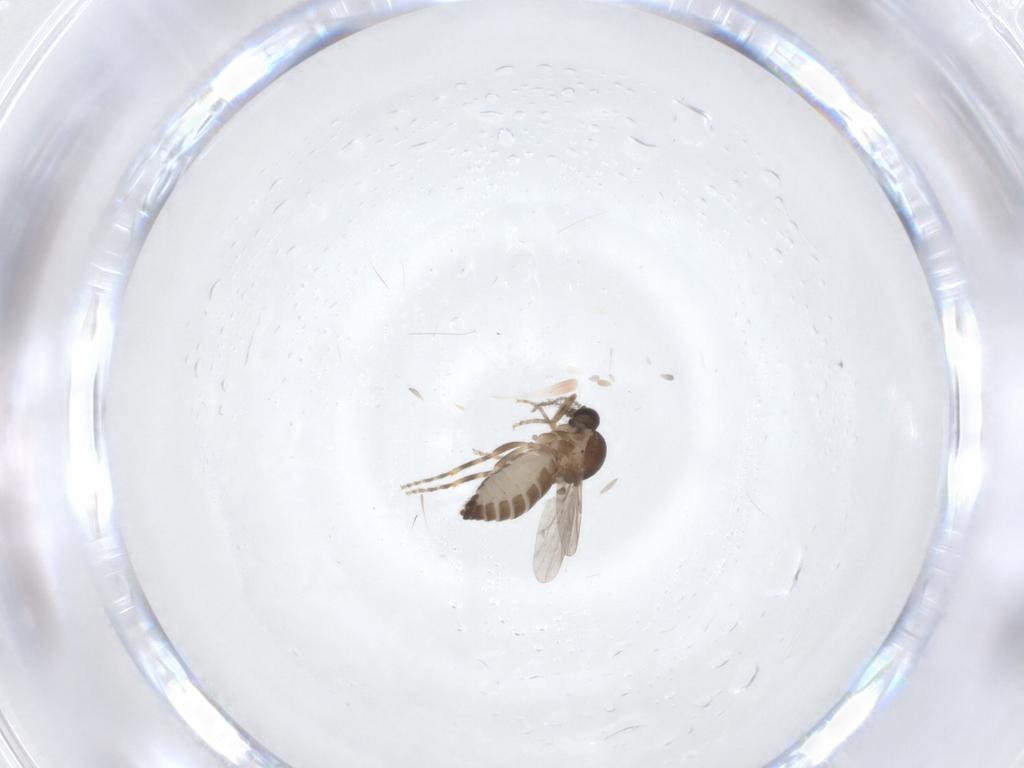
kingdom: Animalia
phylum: Arthropoda
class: Insecta
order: Diptera
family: Ceratopogonidae
